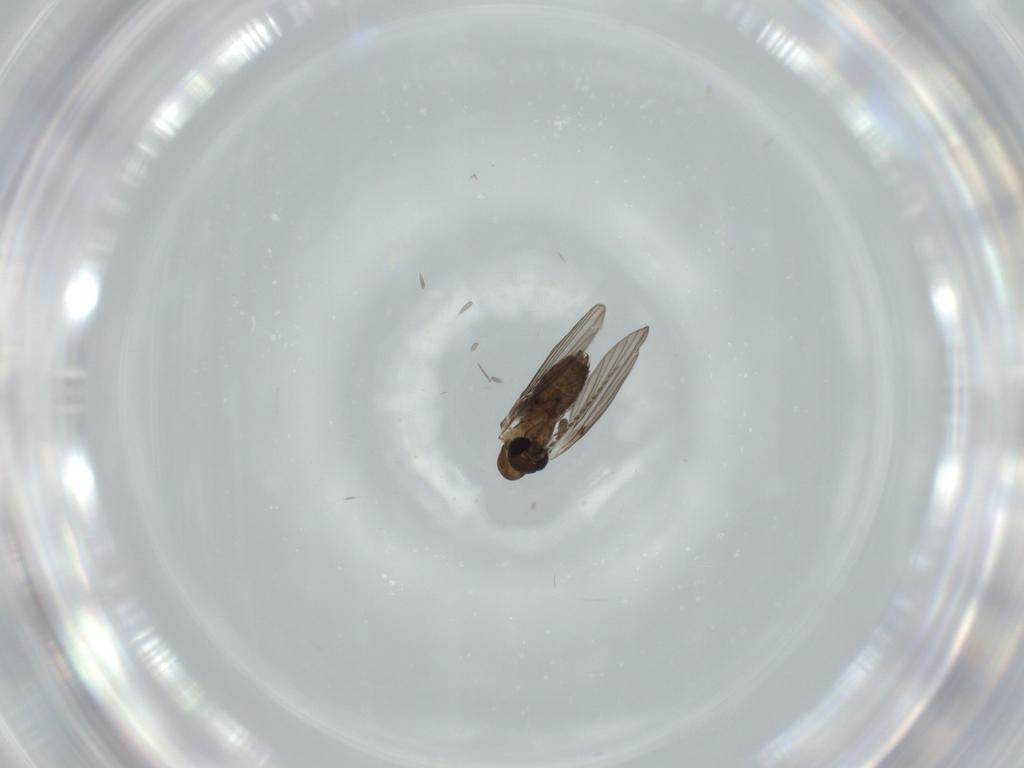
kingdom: Animalia
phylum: Arthropoda
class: Insecta
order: Diptera
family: Psychodidae
